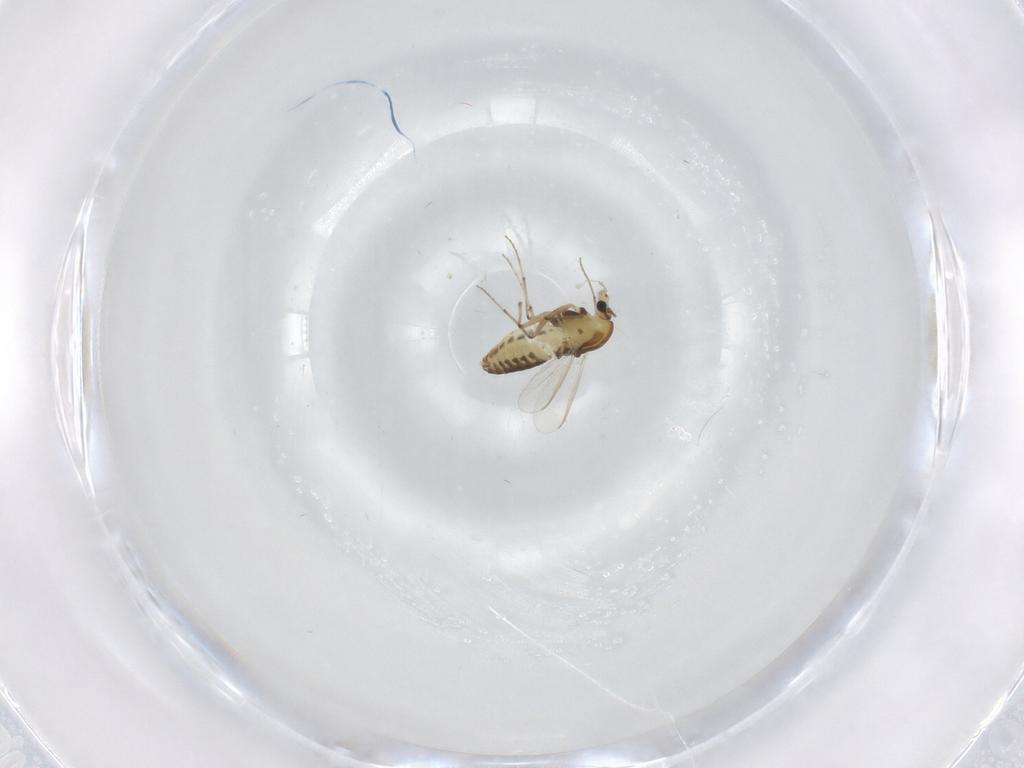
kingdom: Animalia
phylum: Arthropoda
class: Insecta
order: Diptera
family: Chironomidae
